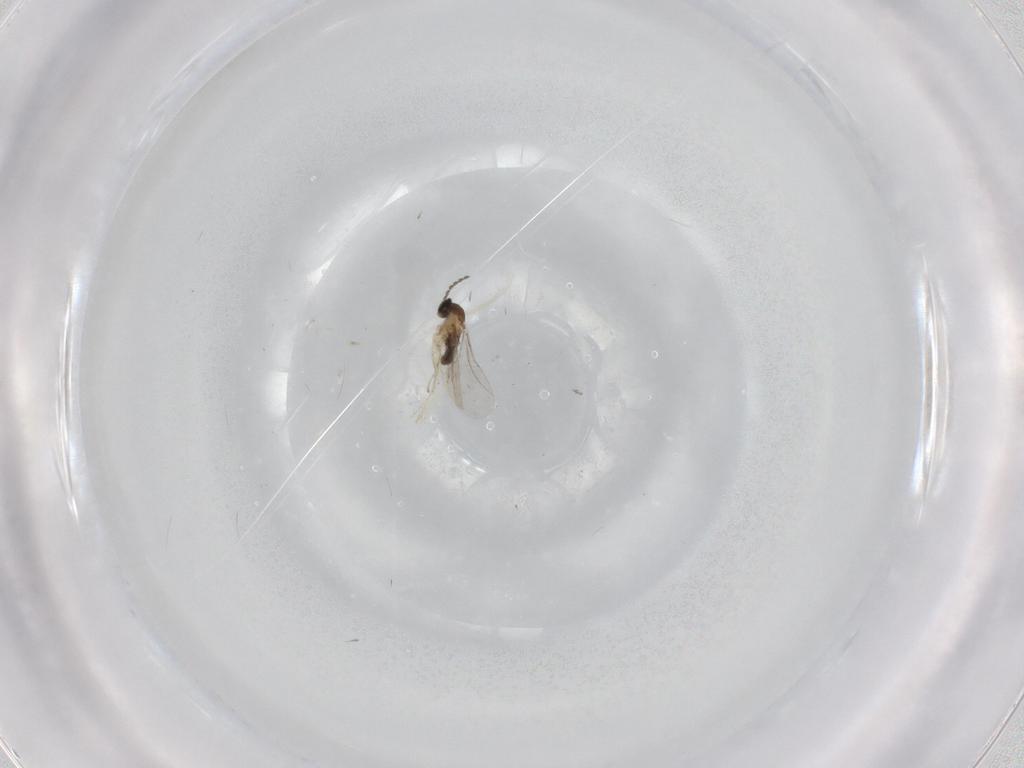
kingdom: Animalia
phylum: Arthropoda
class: Insecta
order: Diptera
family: Cecidomyiidae
